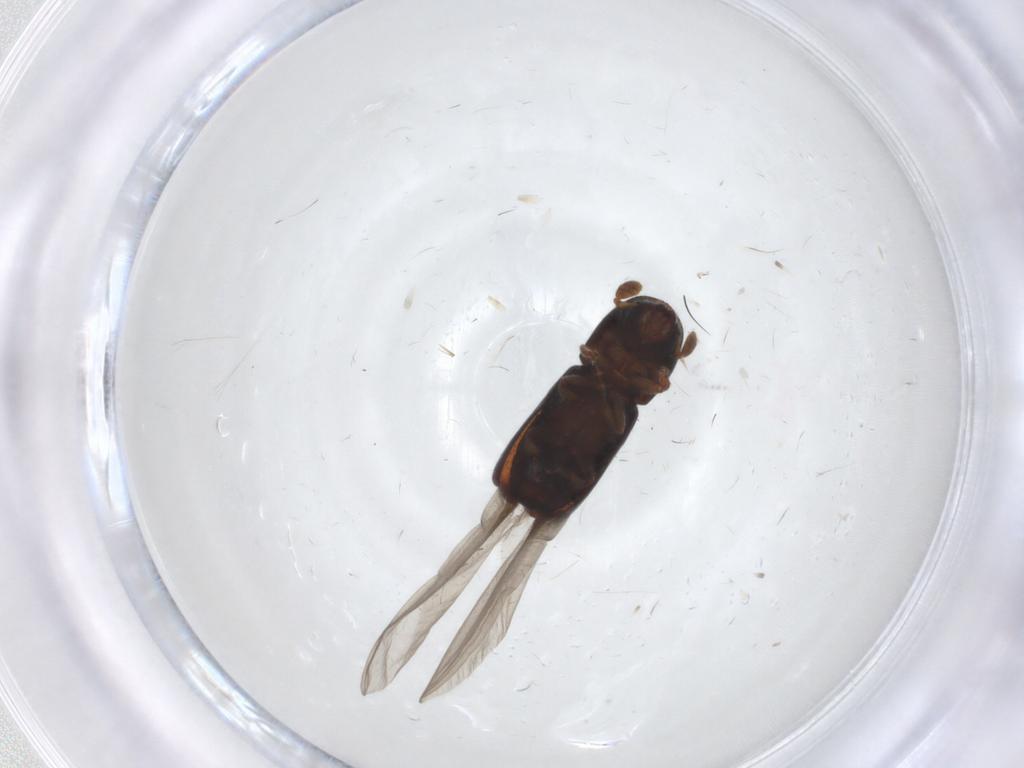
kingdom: Animalia
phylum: Arthropoda
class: Insecta
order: Coleoptera
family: Curculionidae
